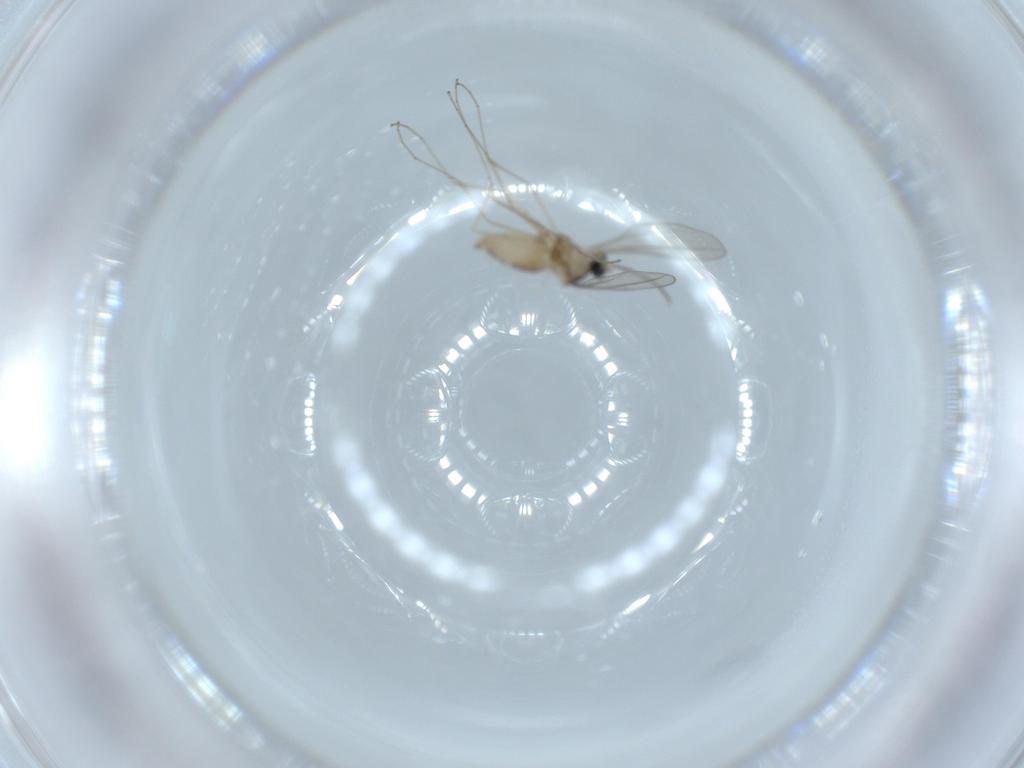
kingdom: Animalia
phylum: Arthropoda
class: Insecta
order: Diptera
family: Cecidomyiidae
